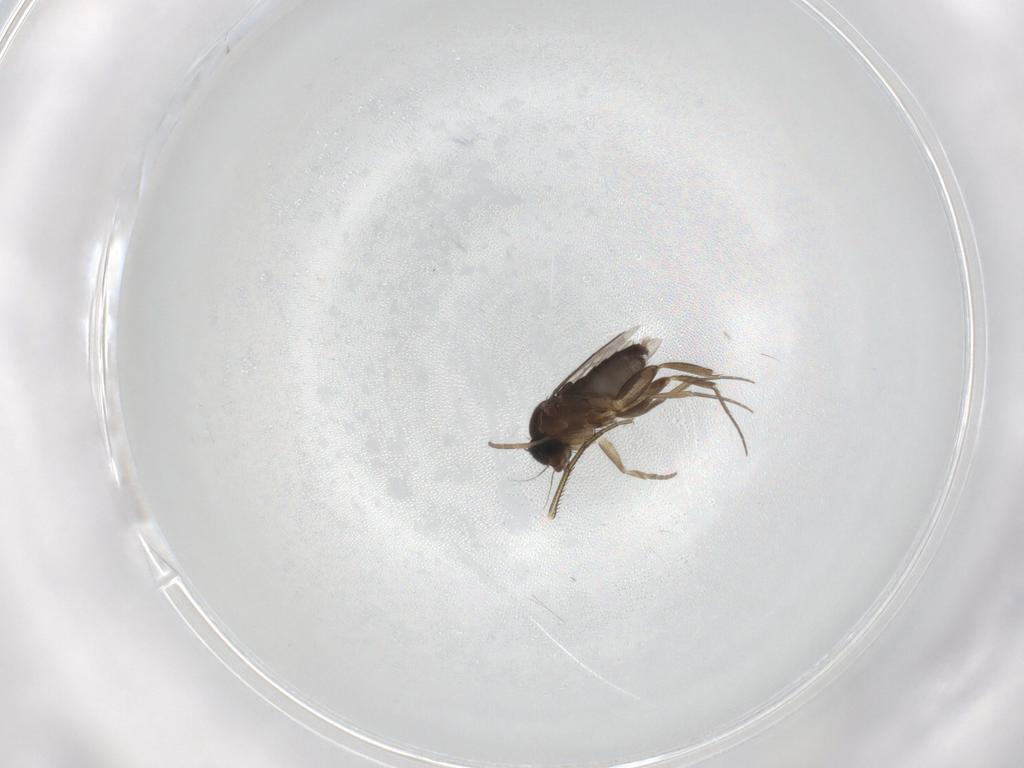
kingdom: Animalia
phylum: Arthropoda
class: Insecta
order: Diptera
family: Phoridae
